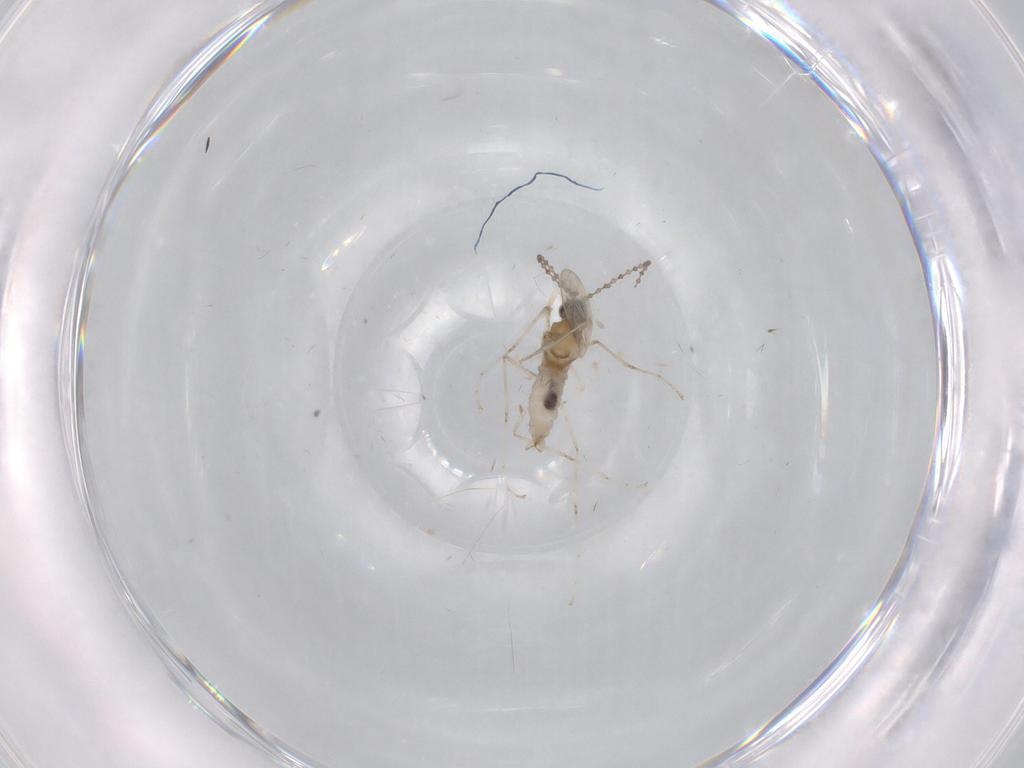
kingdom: Animalia
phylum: Arthropoda
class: Insecta
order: Diptera
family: Cecidomyiidae
